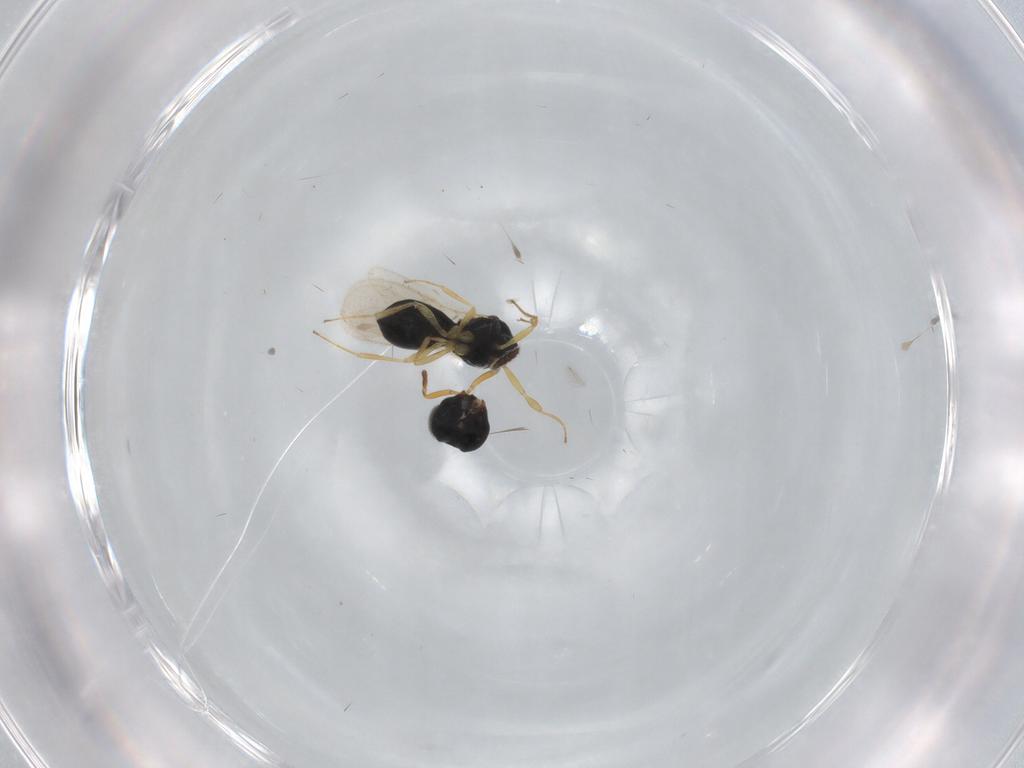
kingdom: Animalia
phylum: Arthropoda
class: Insecta
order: Hymenoptera
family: Scelionidae
